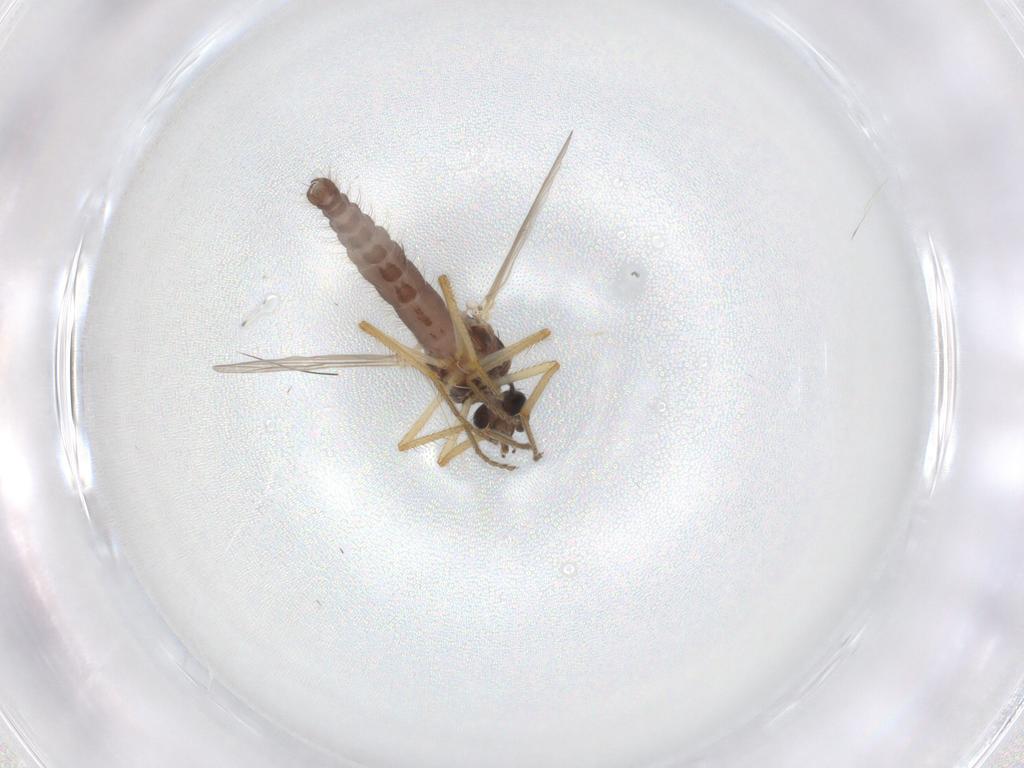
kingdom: Animalia
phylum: Arthropoda
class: Insecta
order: Diptera
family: Ceratopogonidae
